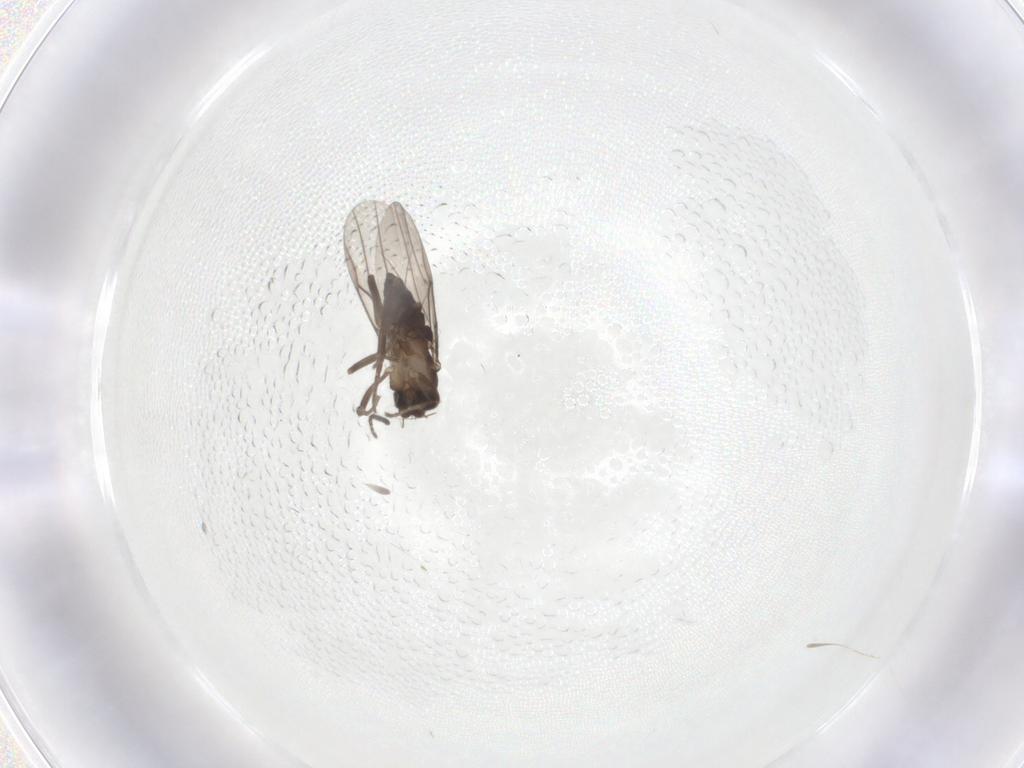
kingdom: Animalia
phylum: Arthropoda
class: Insecta
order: Diptera
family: Sciaridae
